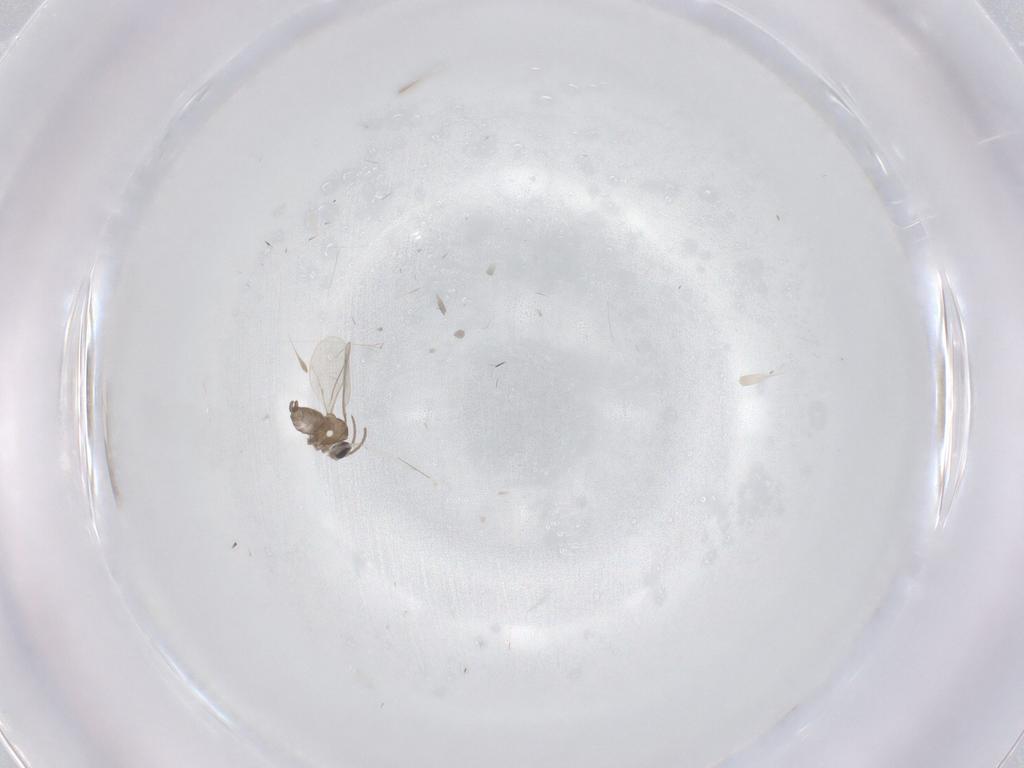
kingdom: Animalia
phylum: Arthropoda
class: Insecta
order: Diptera
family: Cecidomyiidae
